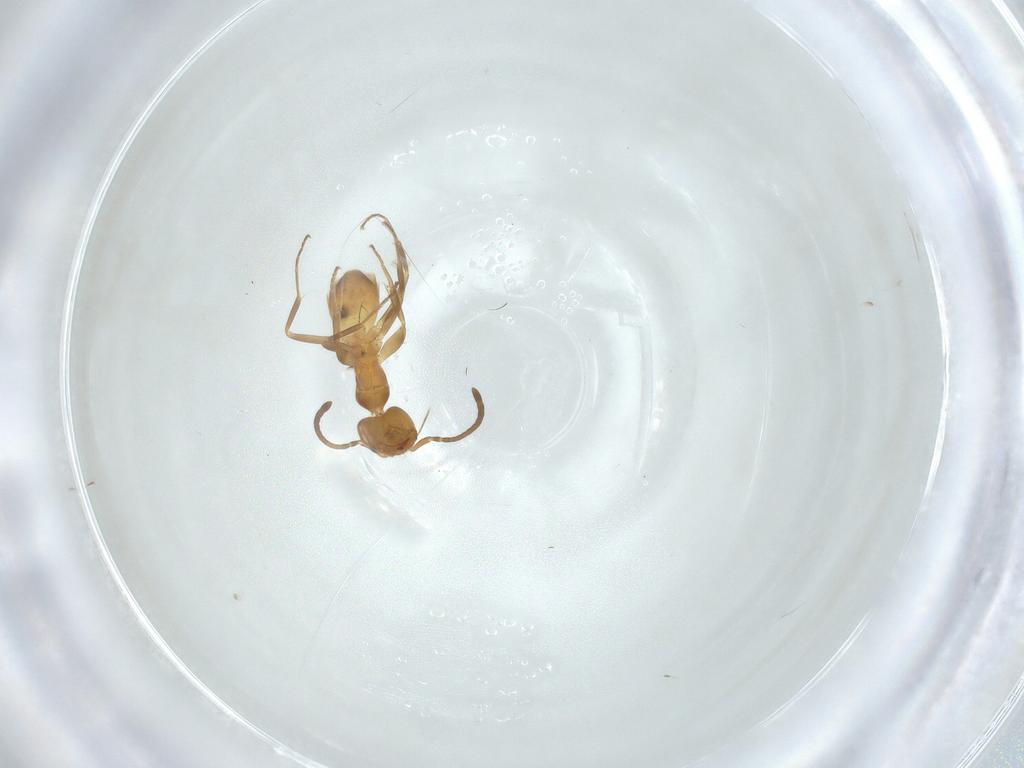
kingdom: Animalia
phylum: Arthropoda
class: Insecta
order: Hymenoptera
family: Formicidae
